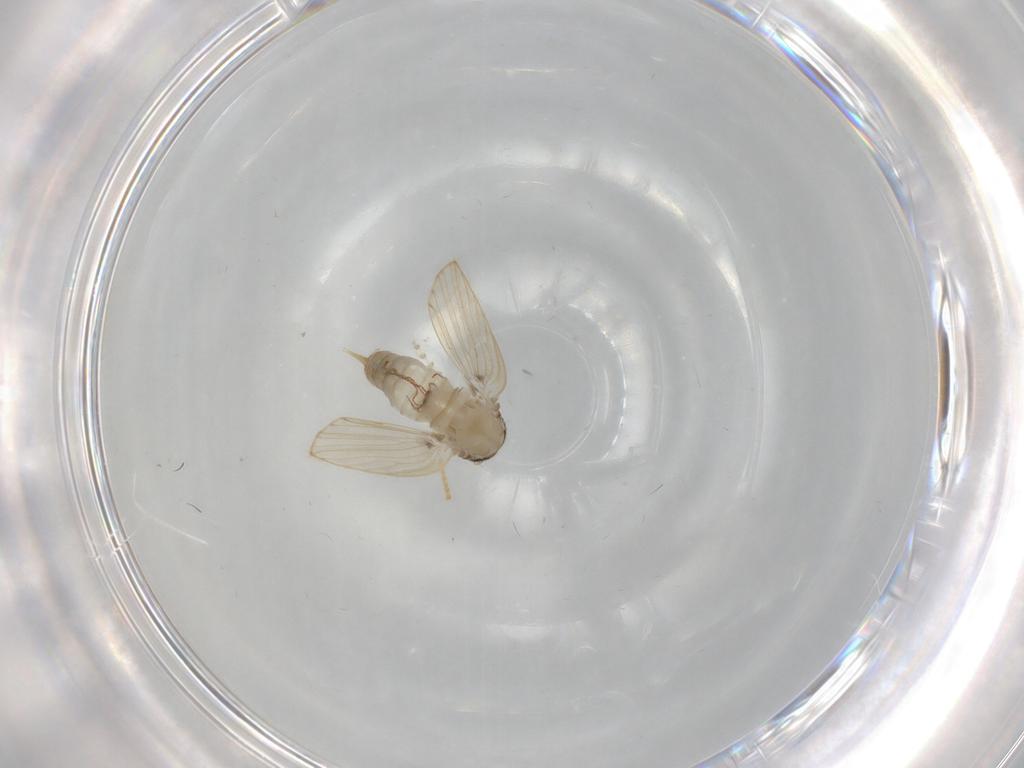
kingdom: Animalia
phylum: Arthropoda
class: Insecta
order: Diptera
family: Psychodidae
